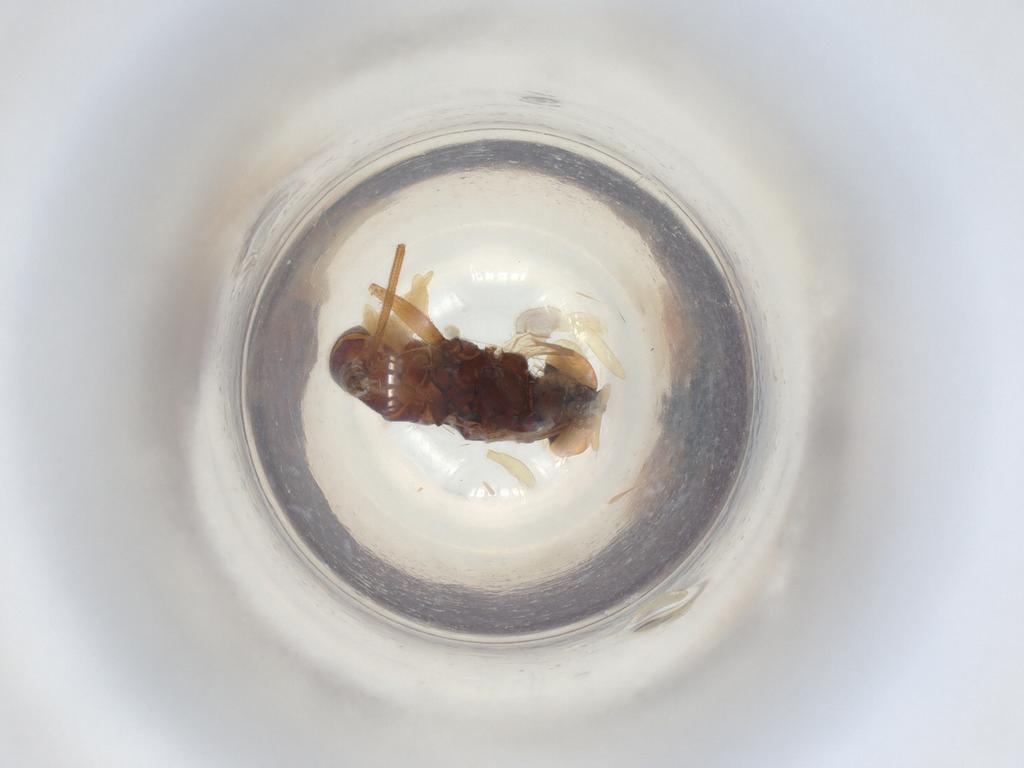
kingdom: Animalia
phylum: Arthropoda
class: Insecta
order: Diptera
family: Dolichopodidae
